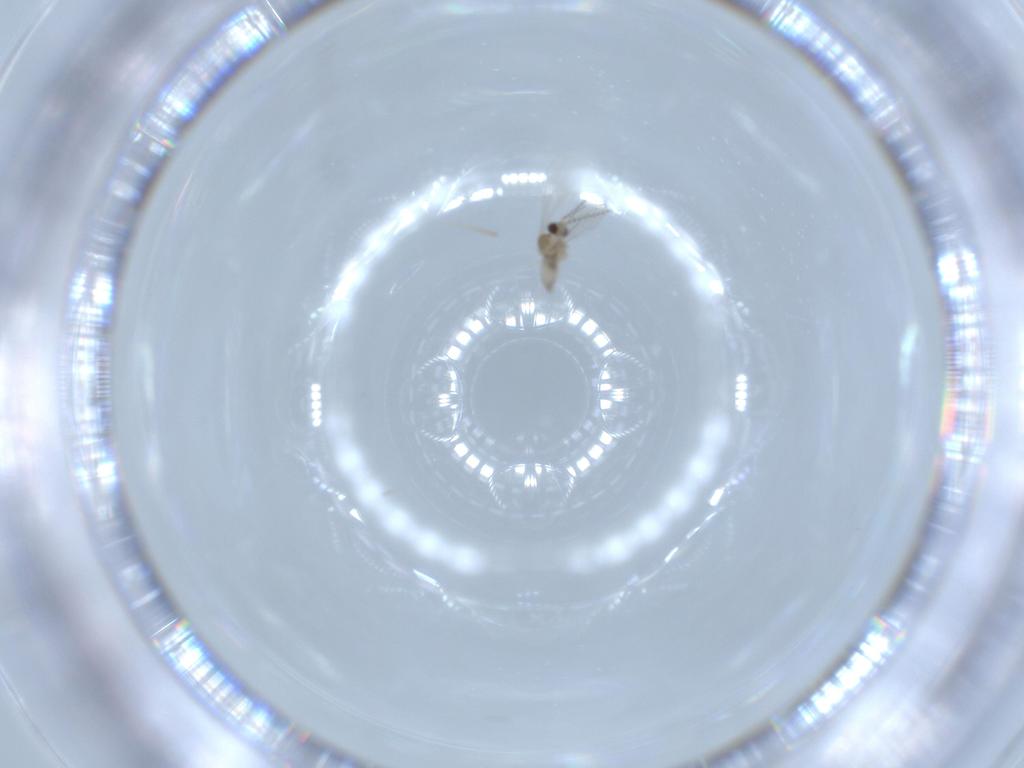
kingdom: Animalia
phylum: Arthropoda
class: Insecta
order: Diptera
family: Cecidomyiidae
